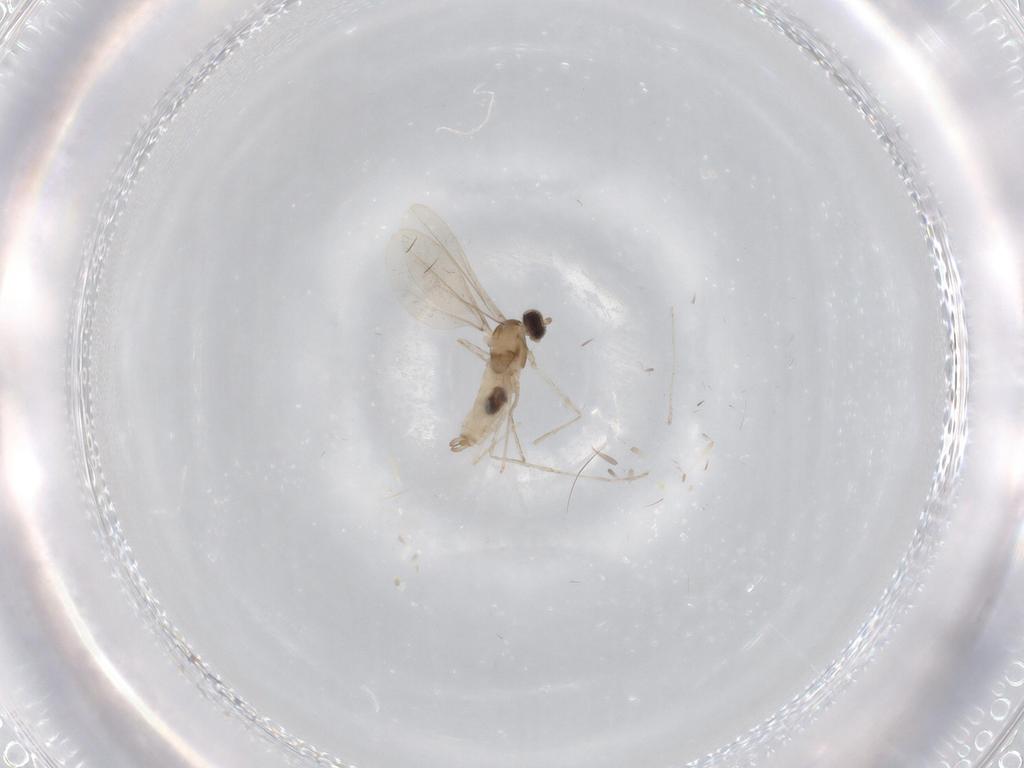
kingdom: Animalia
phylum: Arthropoda
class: Insecta
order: Diptera
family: Cecidomyiidae
